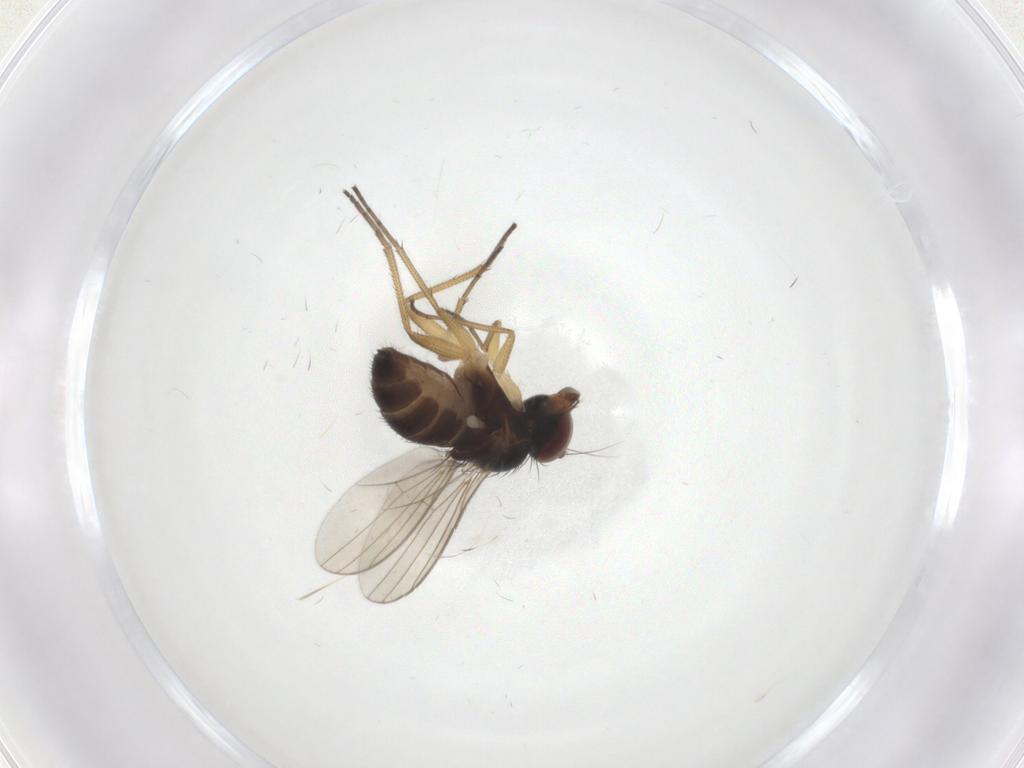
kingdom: Animalia
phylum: Arthropoda
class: Insecta
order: Diptera
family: Dolichopodidae
